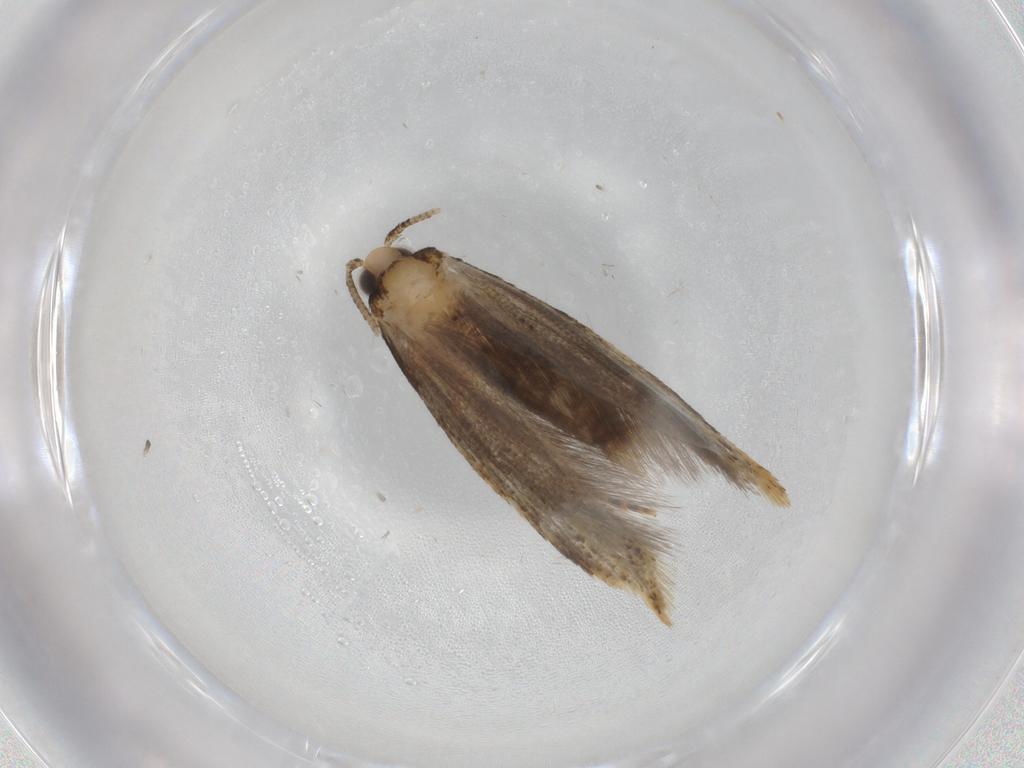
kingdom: Animalia
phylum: Arthropoda
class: Insecta
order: Lepidoptera
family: Tineidae
